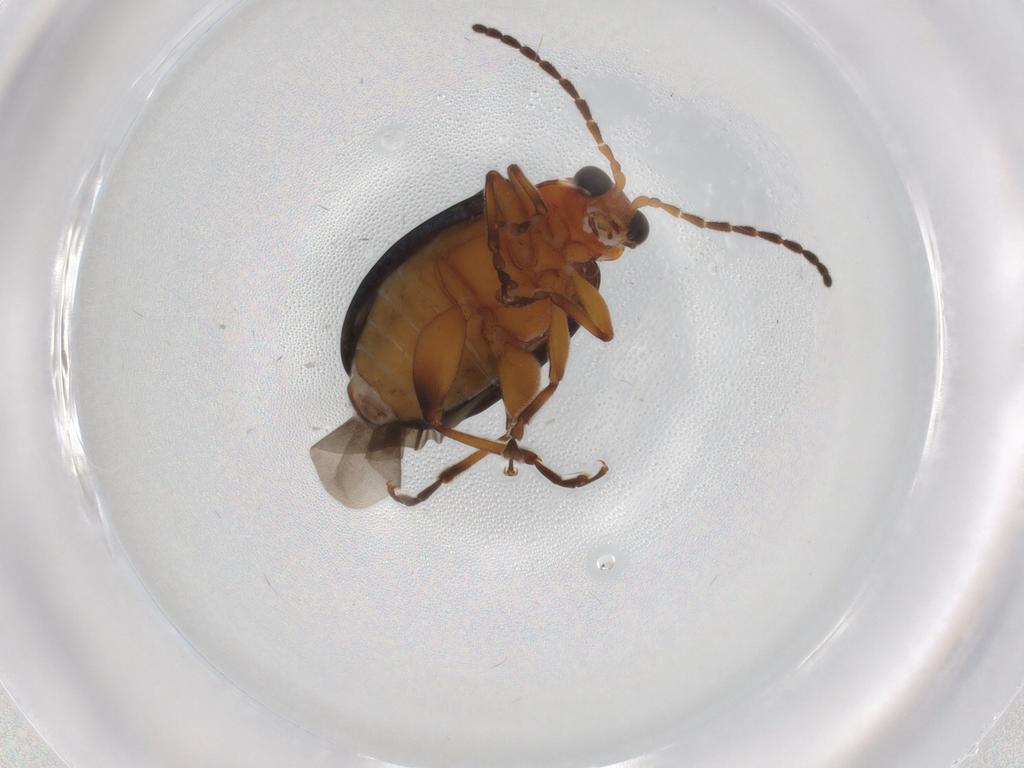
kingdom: Animalia
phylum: Arthropoda
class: Insecta
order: Coleoptera
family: Chrysomelidae
